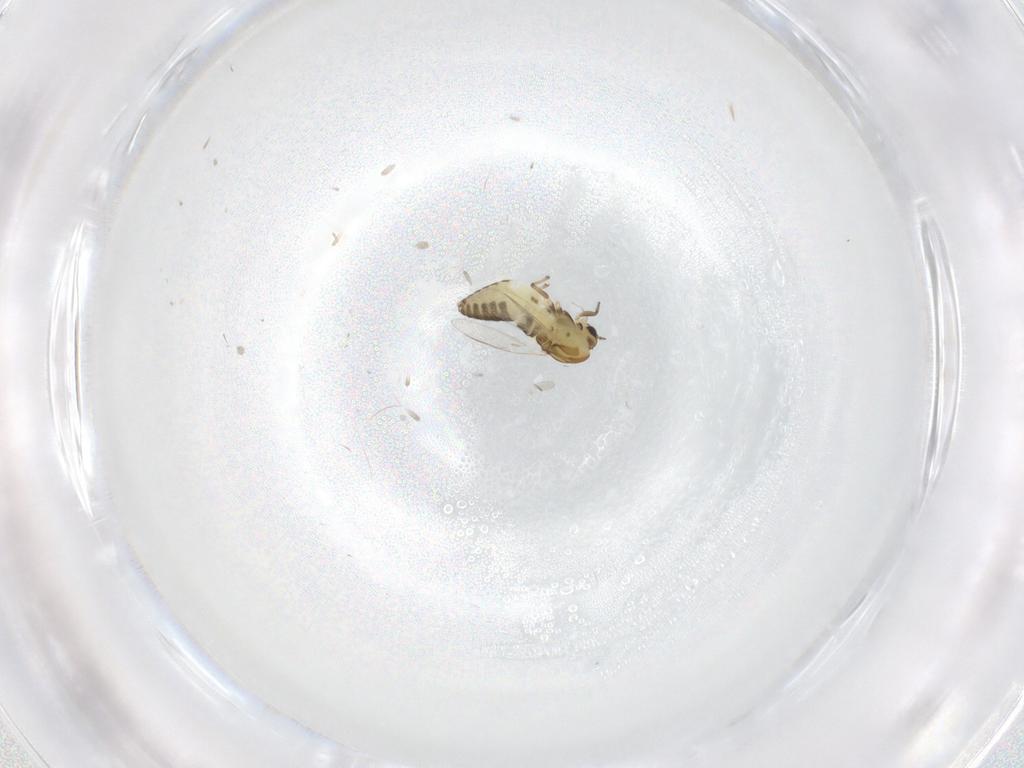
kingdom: Animalia
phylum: Arthropoda
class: Insecta
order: Diptera
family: Chironomidae
